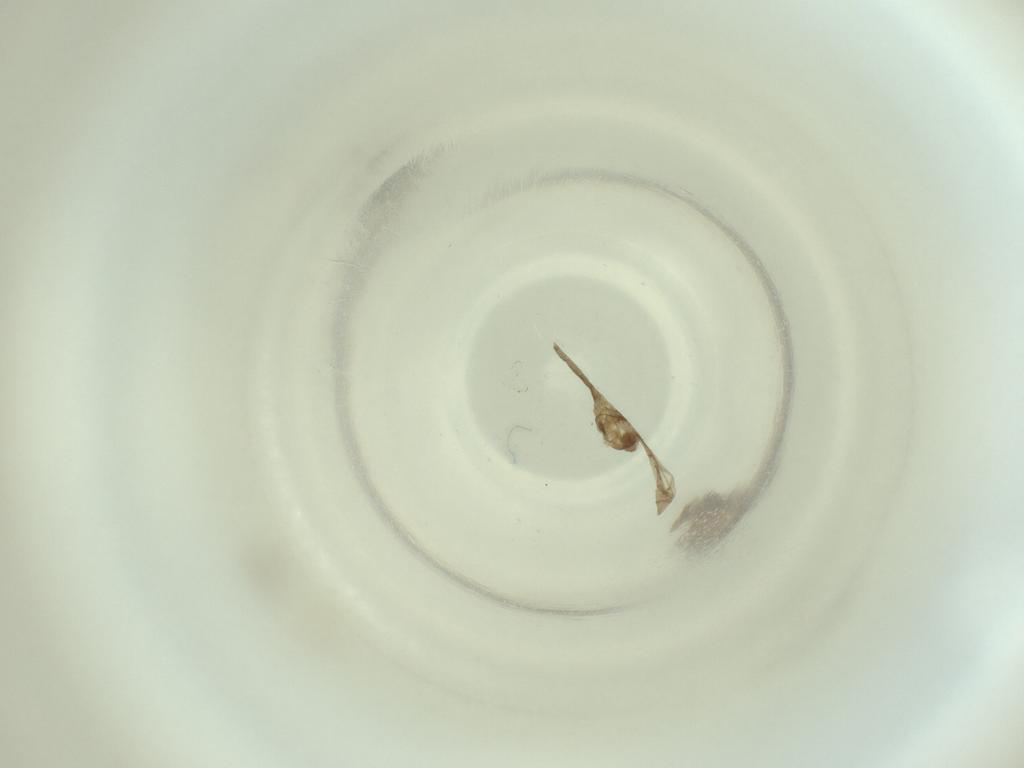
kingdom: Animalia
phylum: Arthropoda
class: Insecta
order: Diptera
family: Cecidomyiidae
